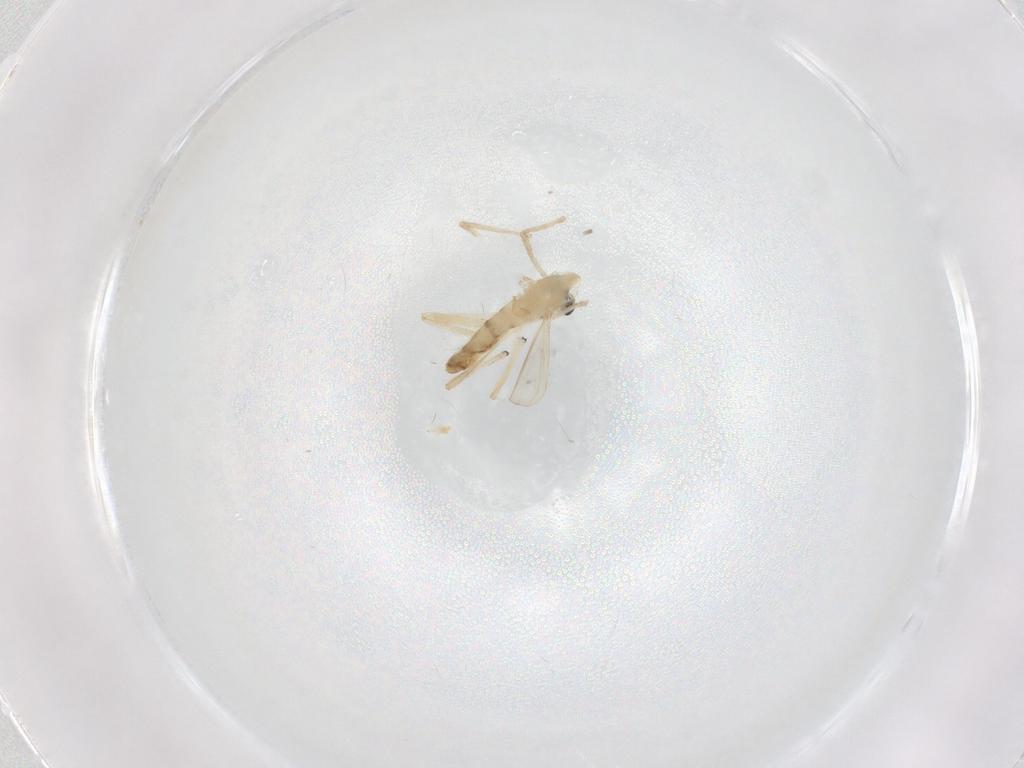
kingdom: Animalia
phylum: Arthropoda
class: Insecta
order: Diptera
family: Chironomidae
